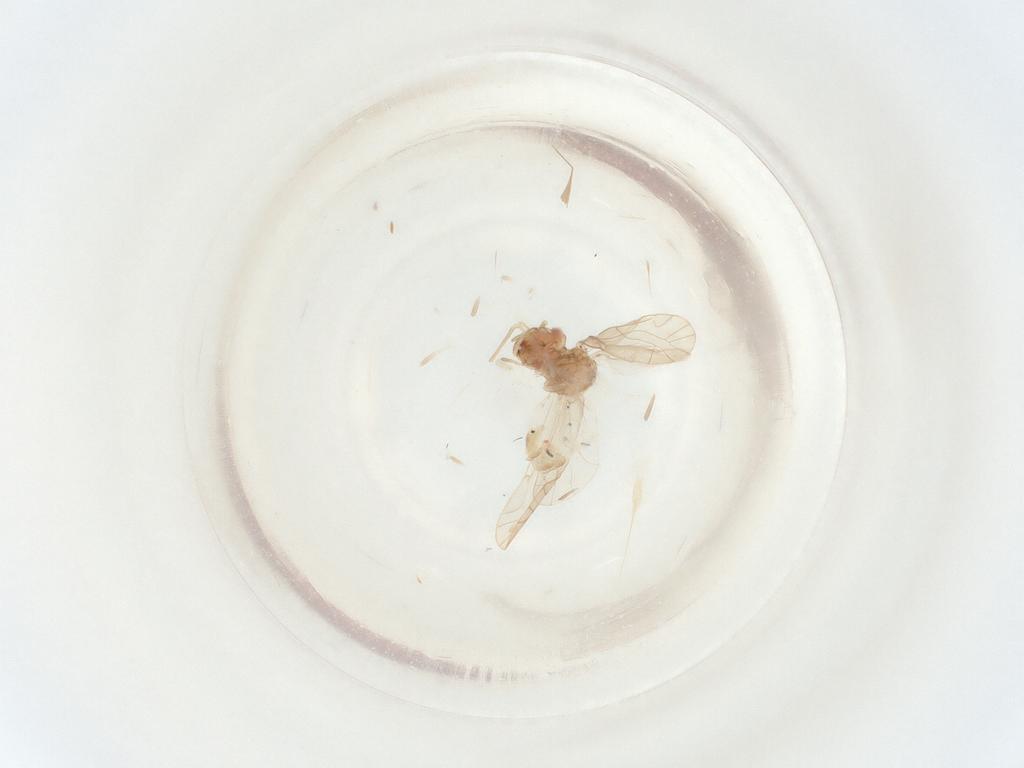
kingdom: Animalia
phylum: Arthropoda
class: Insecta
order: Psocodea
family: Lachesillidae
